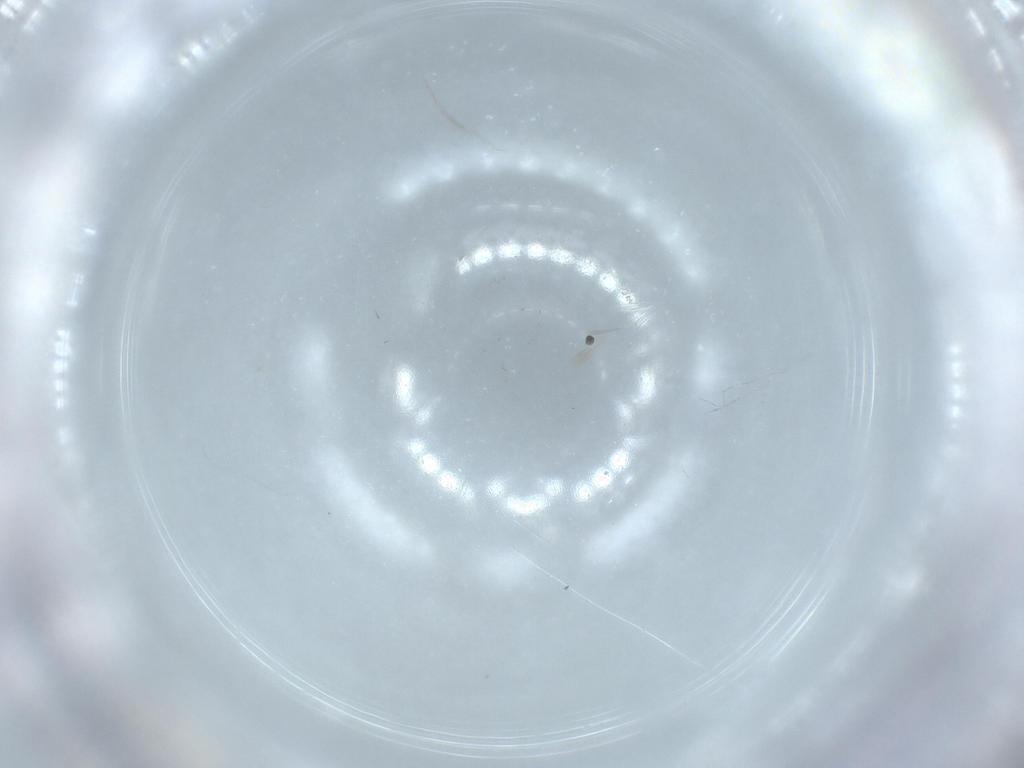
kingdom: Animalia
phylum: Arthropoda
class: Insecta
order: Diptera
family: Cecidomyiidae
